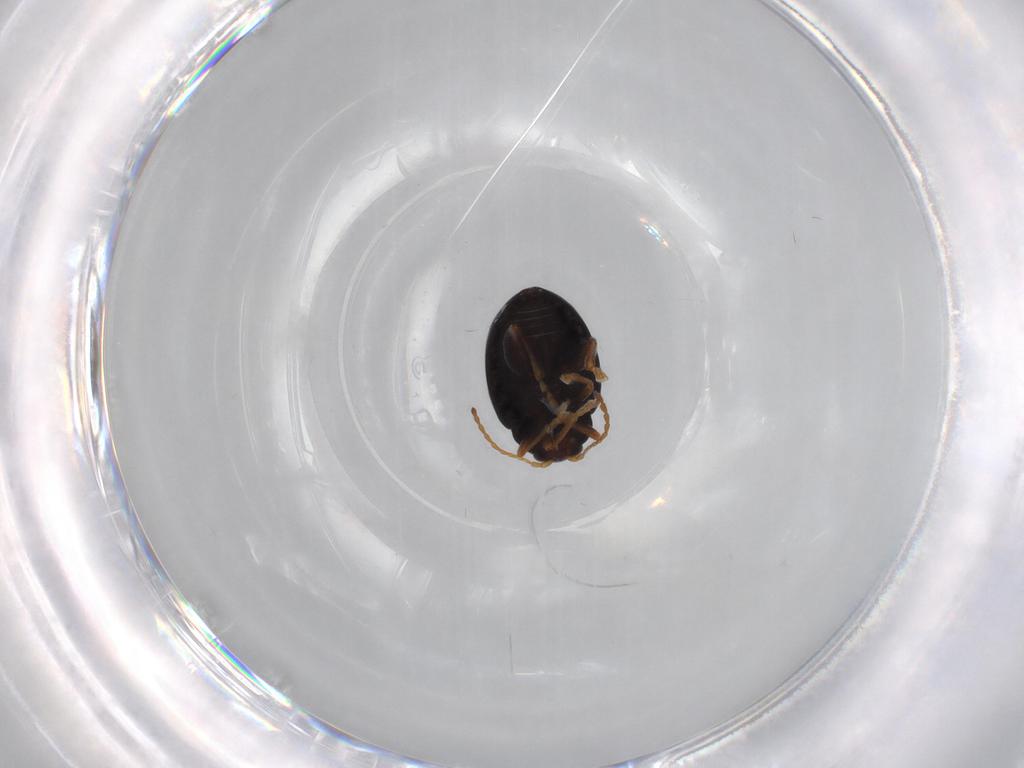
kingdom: Animalia
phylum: Arthropoda
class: Insecta
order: Coleoptera
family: Chrysomelidae
